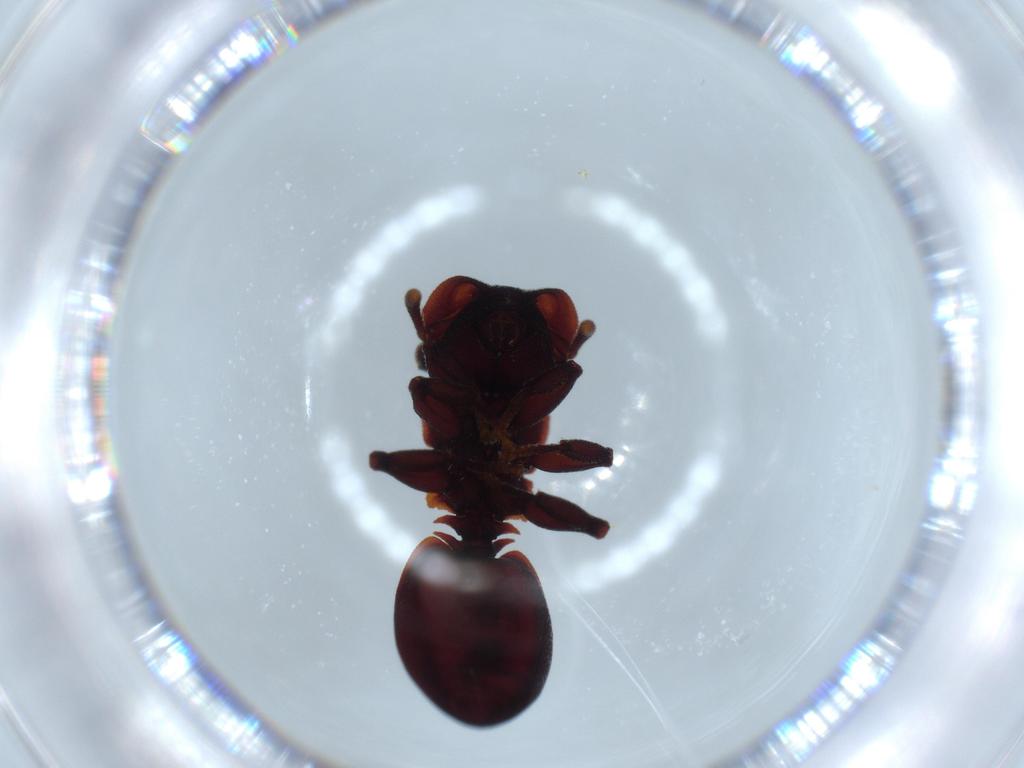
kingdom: Animalia
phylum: Arthropoda
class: Insecta
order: Hymenoptera
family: Formicidae
